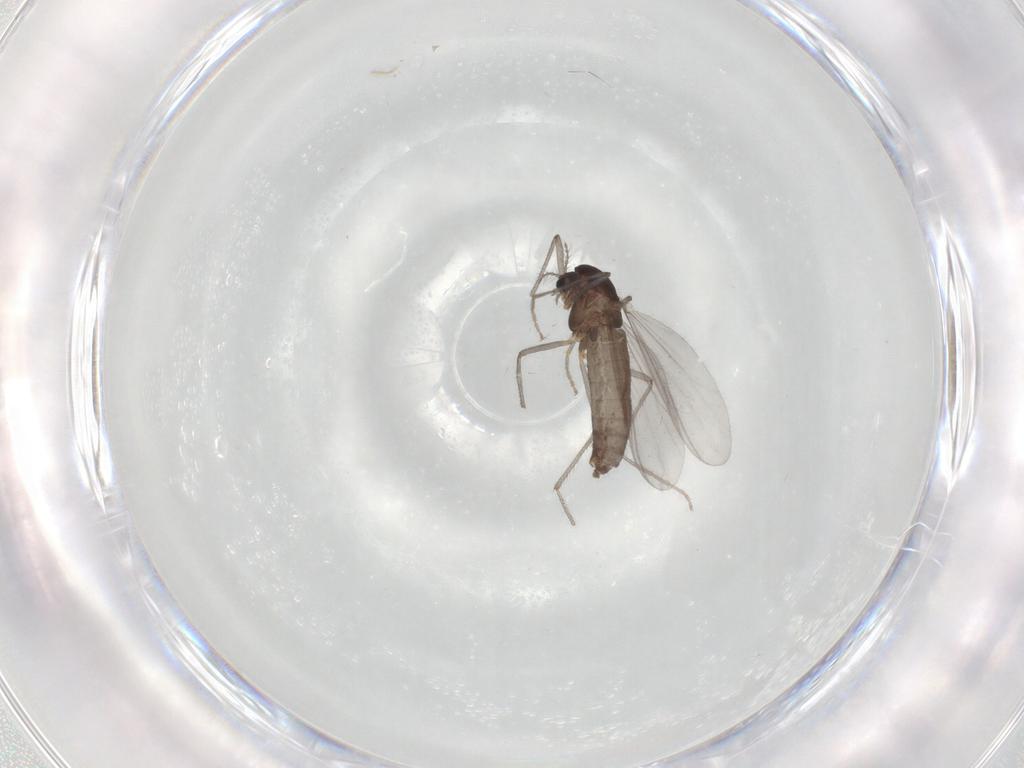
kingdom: Animalia
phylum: Arthropoda
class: Insecta
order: Diptera
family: Chironomidae
